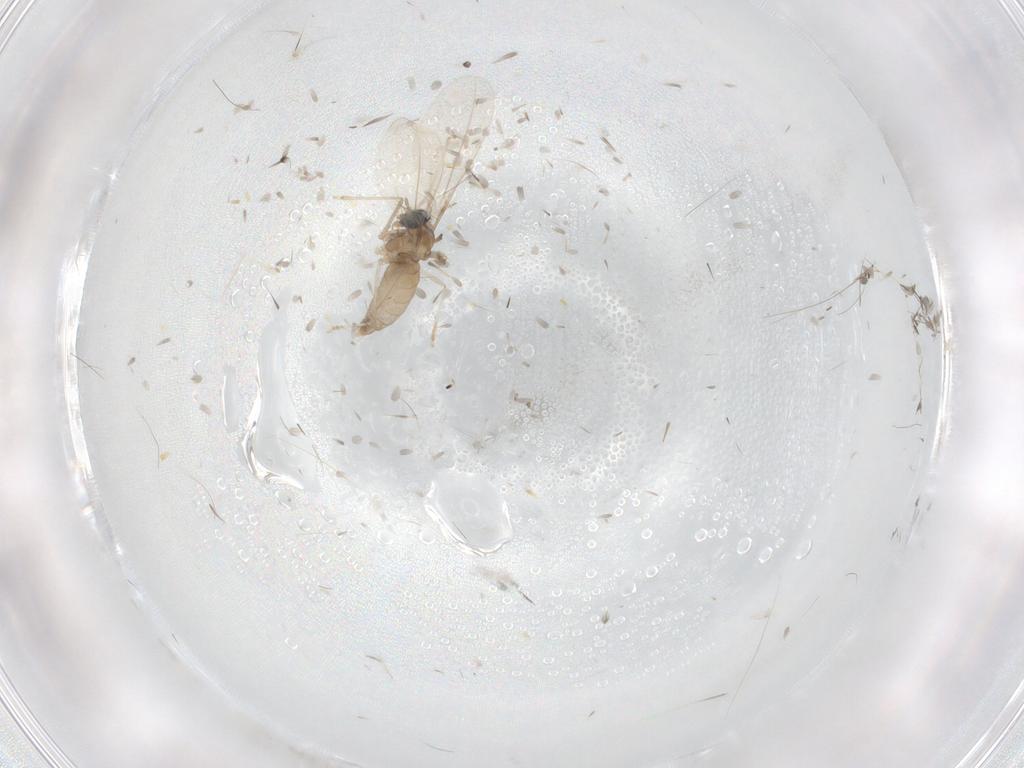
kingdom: Animalia
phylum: Arthropoda
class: Insecta
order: Diptera
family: Cecidomyiidae
